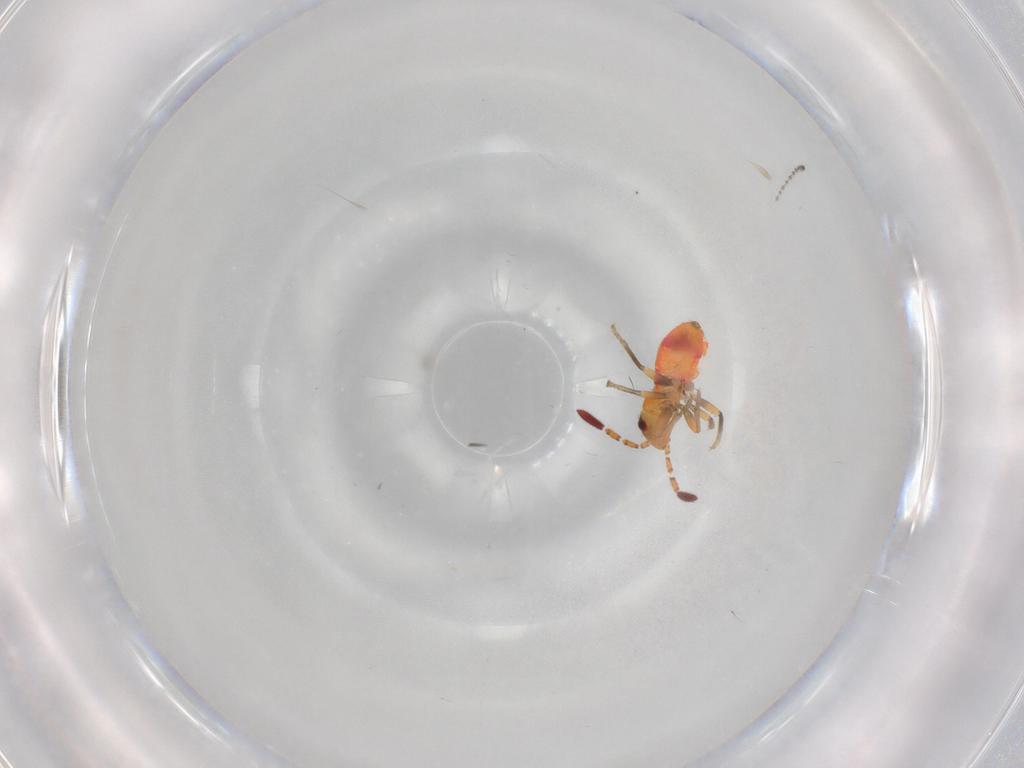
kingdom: Animalia
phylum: Arthropoda
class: Insecta
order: Hemiptera
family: Rhyparochromidae
